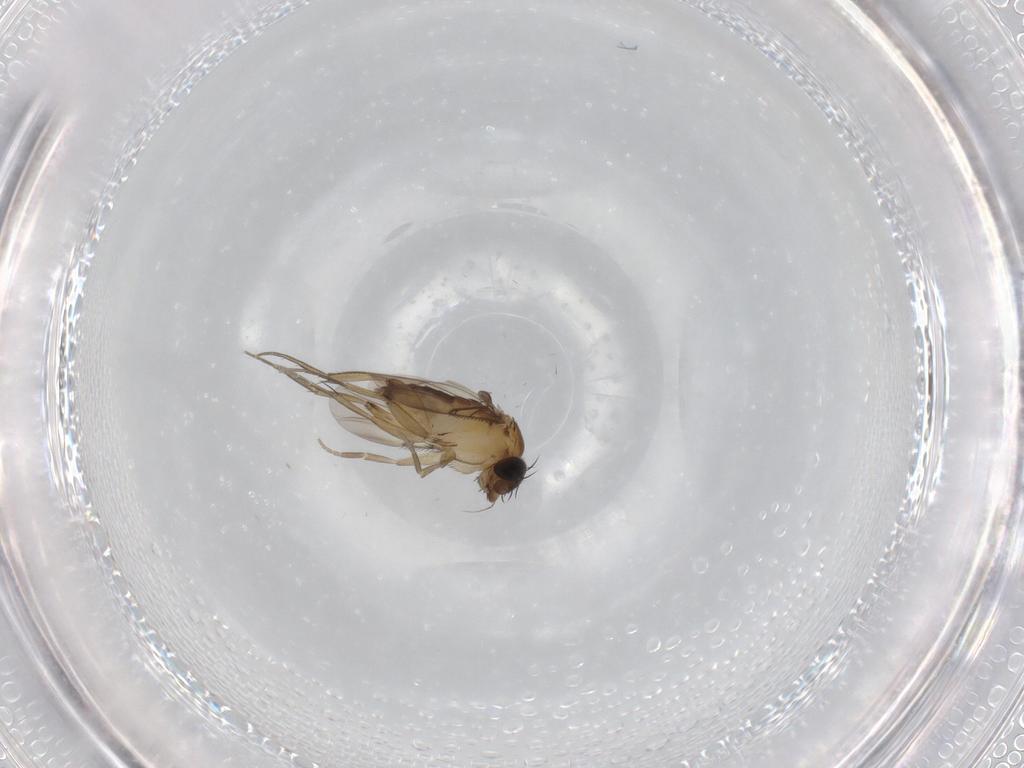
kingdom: Animalia
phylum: Arthropoda
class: Insecta
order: Diptera
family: Phoridae
